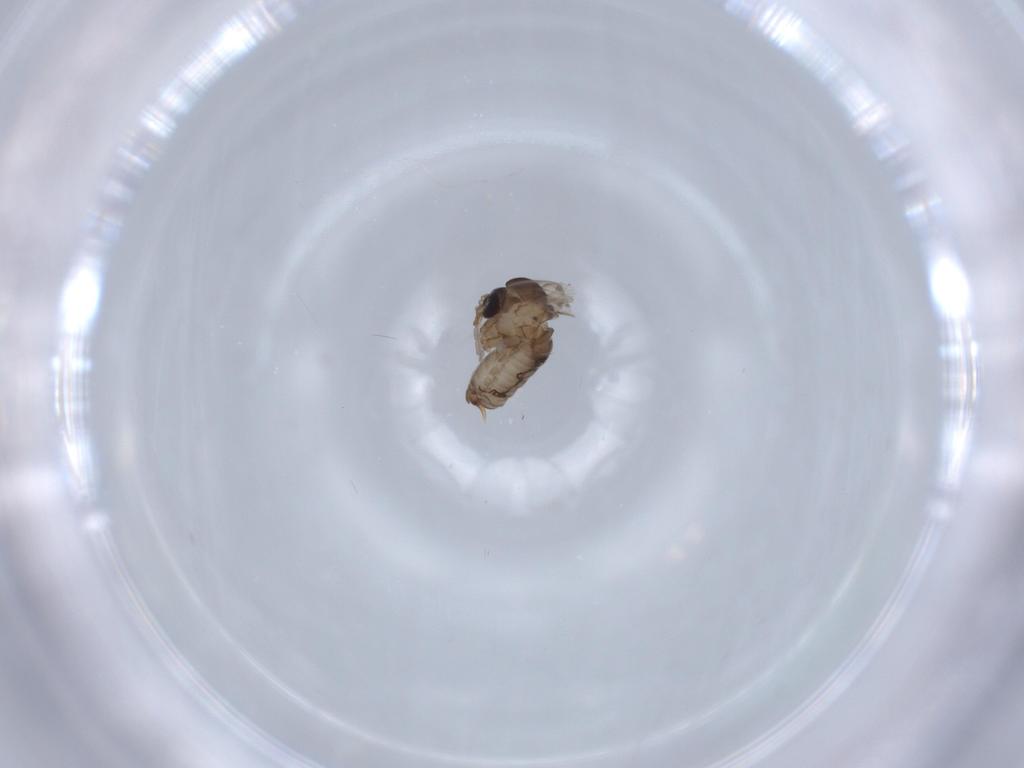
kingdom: Animalia
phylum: Arthropoda
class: Insecta
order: Diptera
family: Psychodidae
